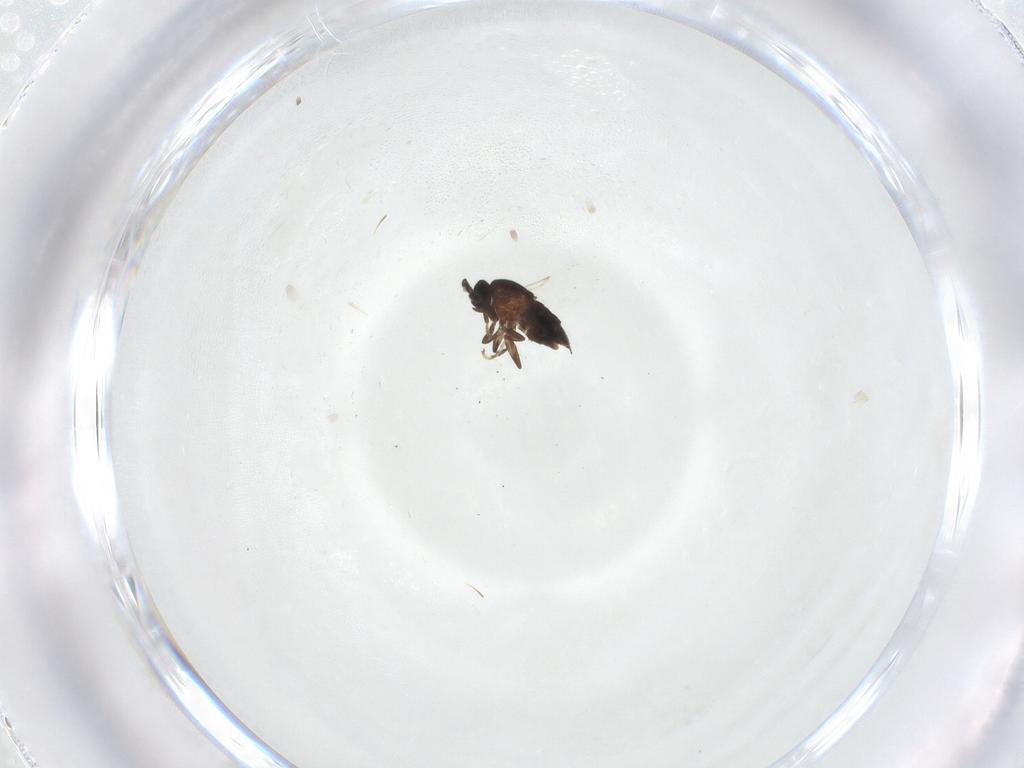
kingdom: Animalia
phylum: Arthropoda
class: Insecta
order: Diptera
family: Scatopsidae
